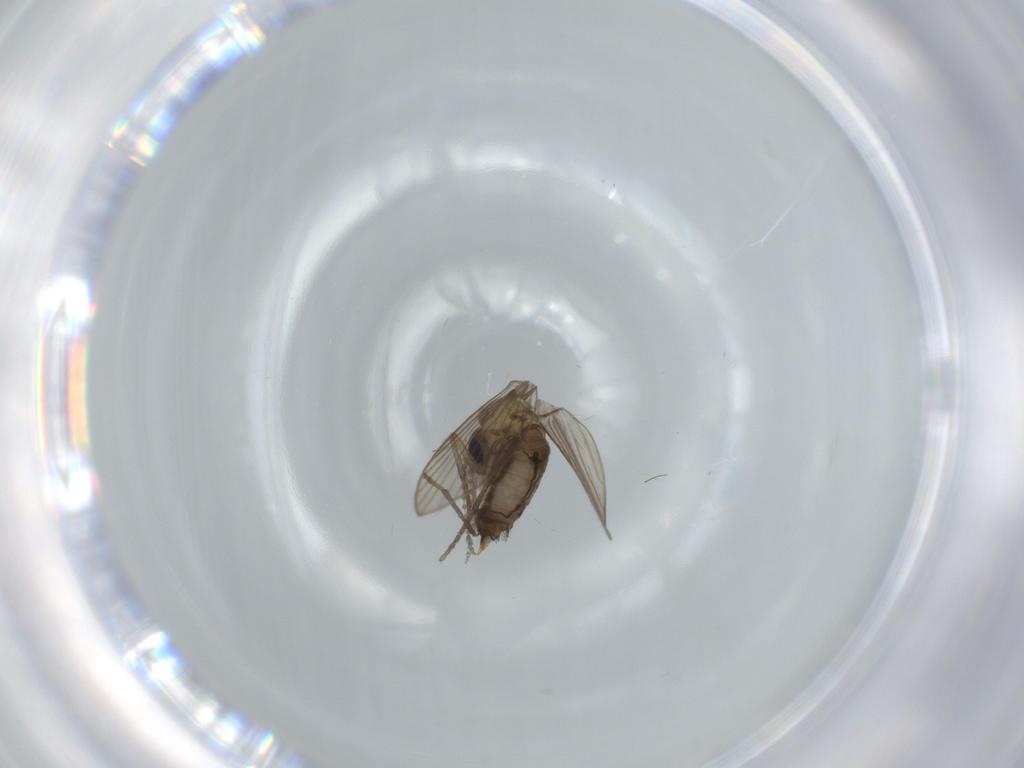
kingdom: Animalia
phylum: Arthropoda
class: Insecta
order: Diptera
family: Psychodidae
